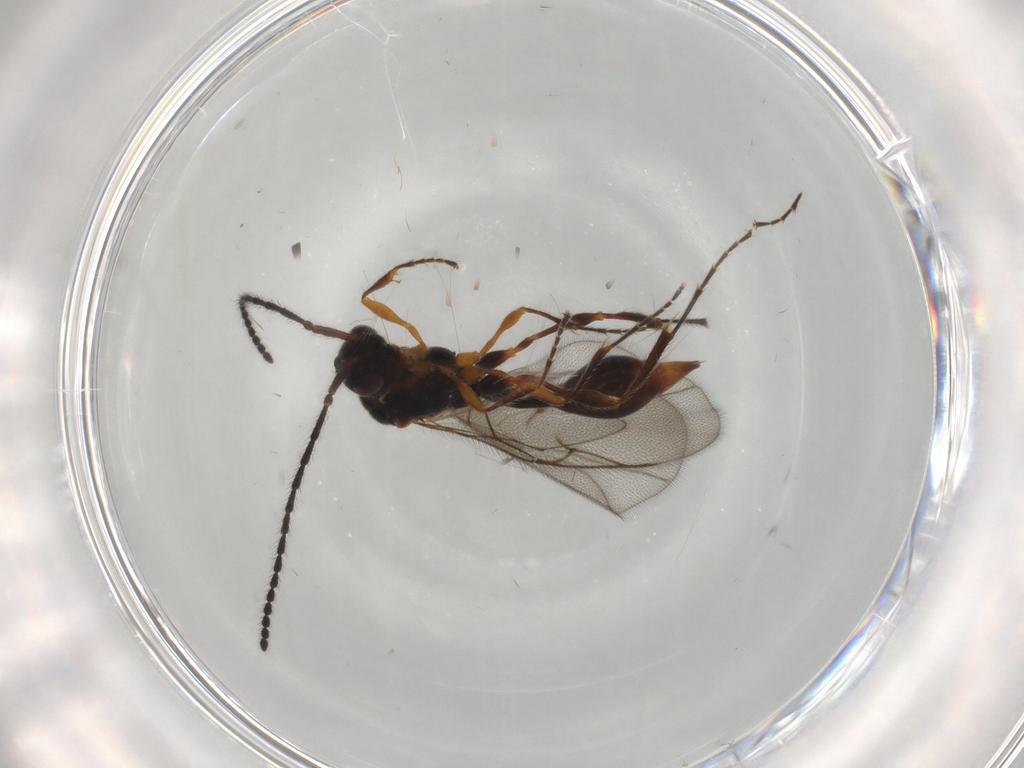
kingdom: Animalia
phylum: Arthropoda
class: Insecta
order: Hymenoptera
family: Diapriidae
